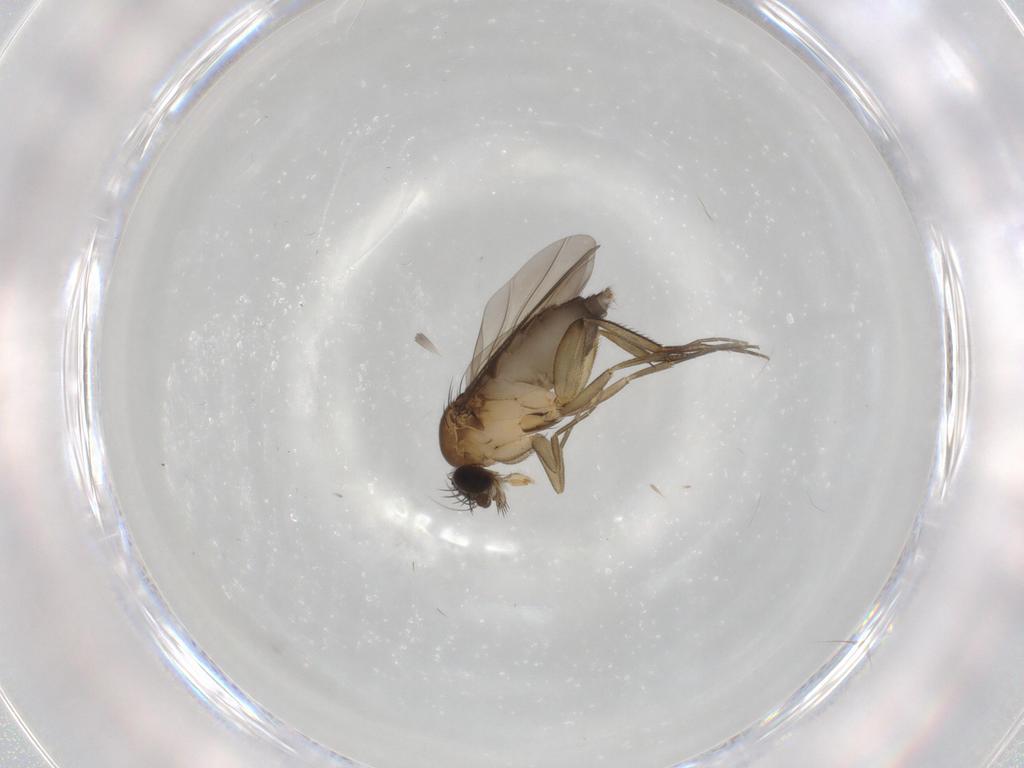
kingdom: Animalia
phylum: Arthropoda
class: Insecta
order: Diptera
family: Phoridae
